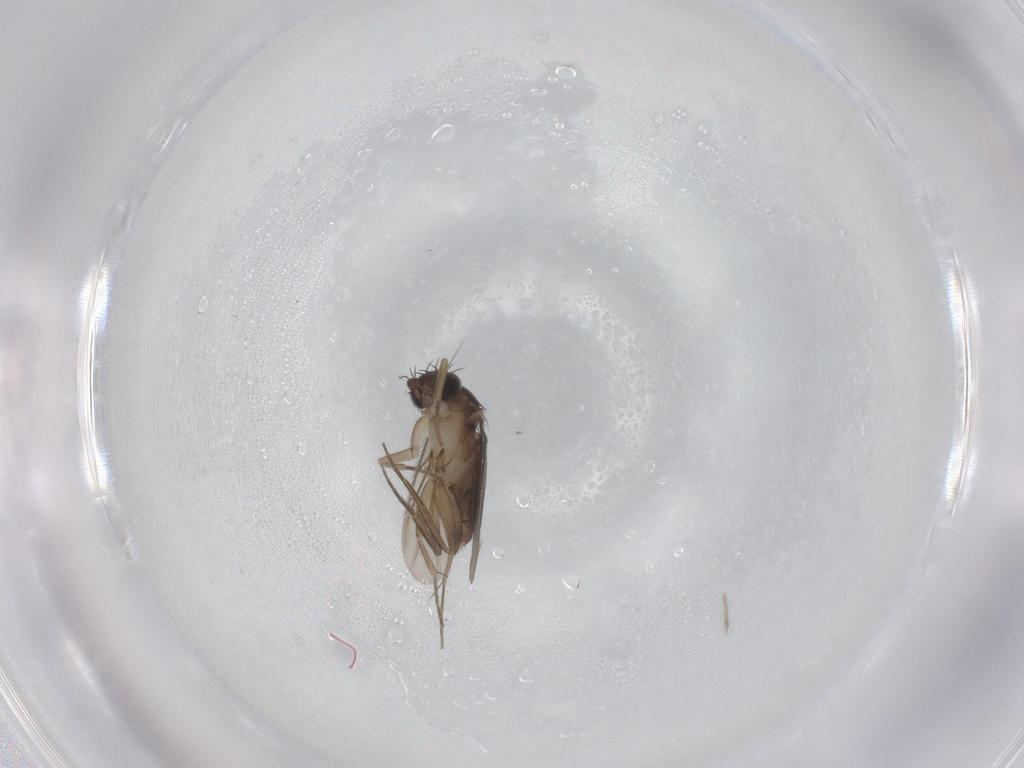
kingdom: Animalia
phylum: Arthropoda
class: Insecta
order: Diptera
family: Phoridae
